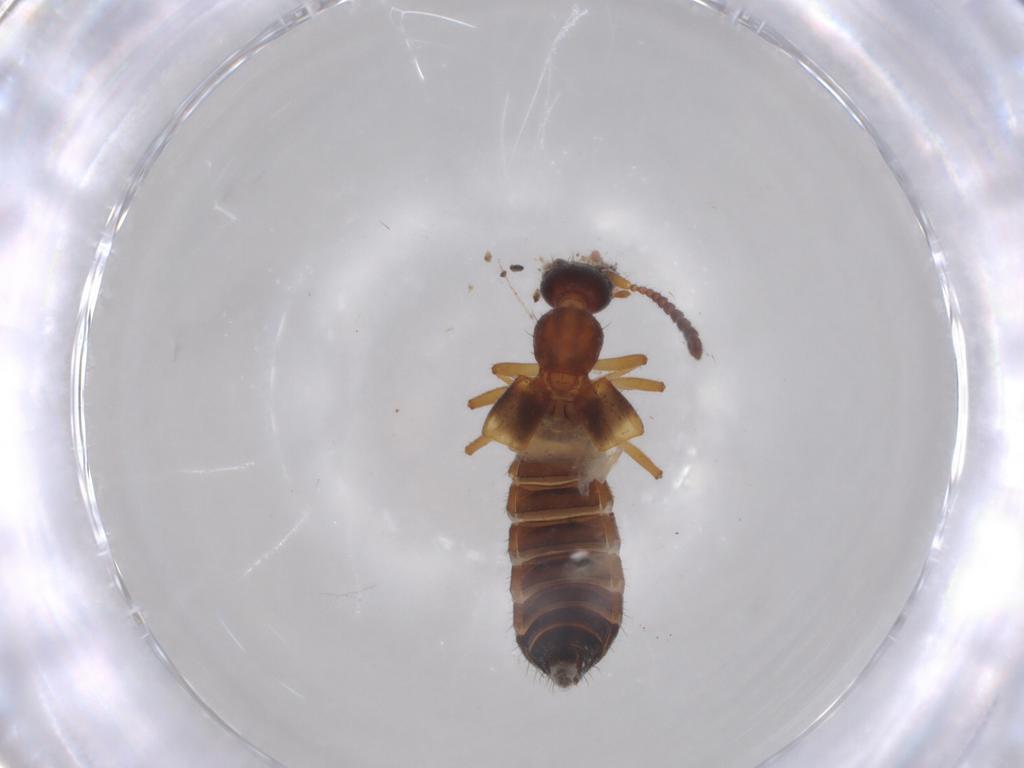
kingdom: Animalia
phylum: Arthropoda
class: Insecta
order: Coleoptera
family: Staphylinidae
